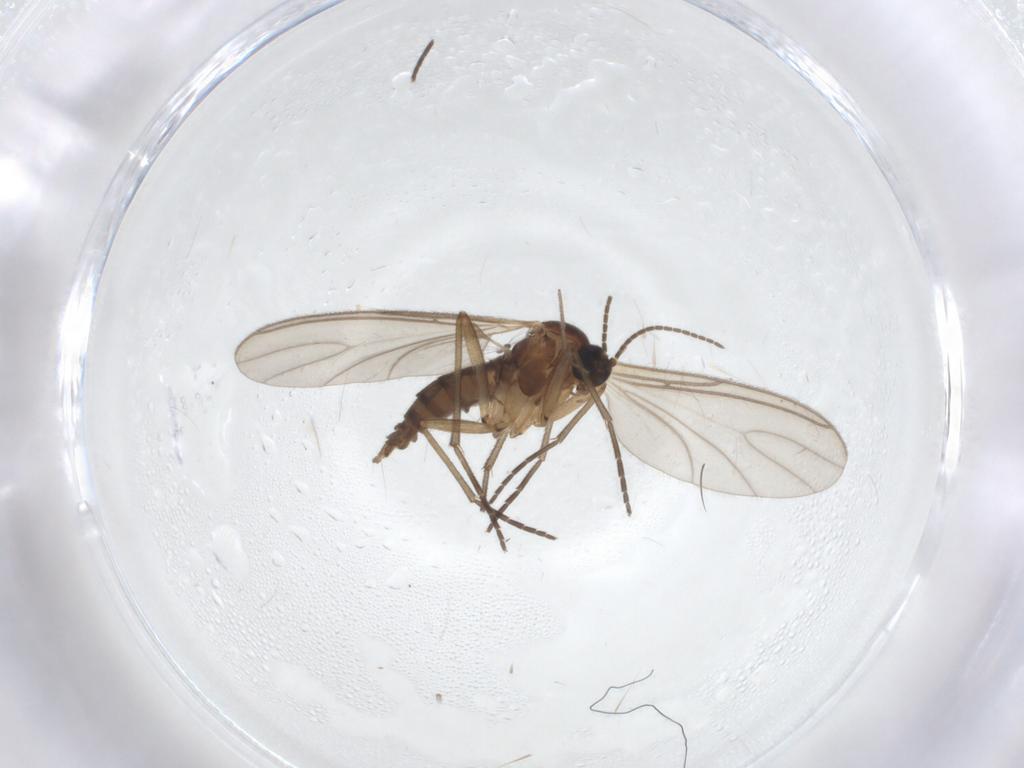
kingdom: Animalia
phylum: Arthropoda
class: Insecta
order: Diptera
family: Sciaridae
